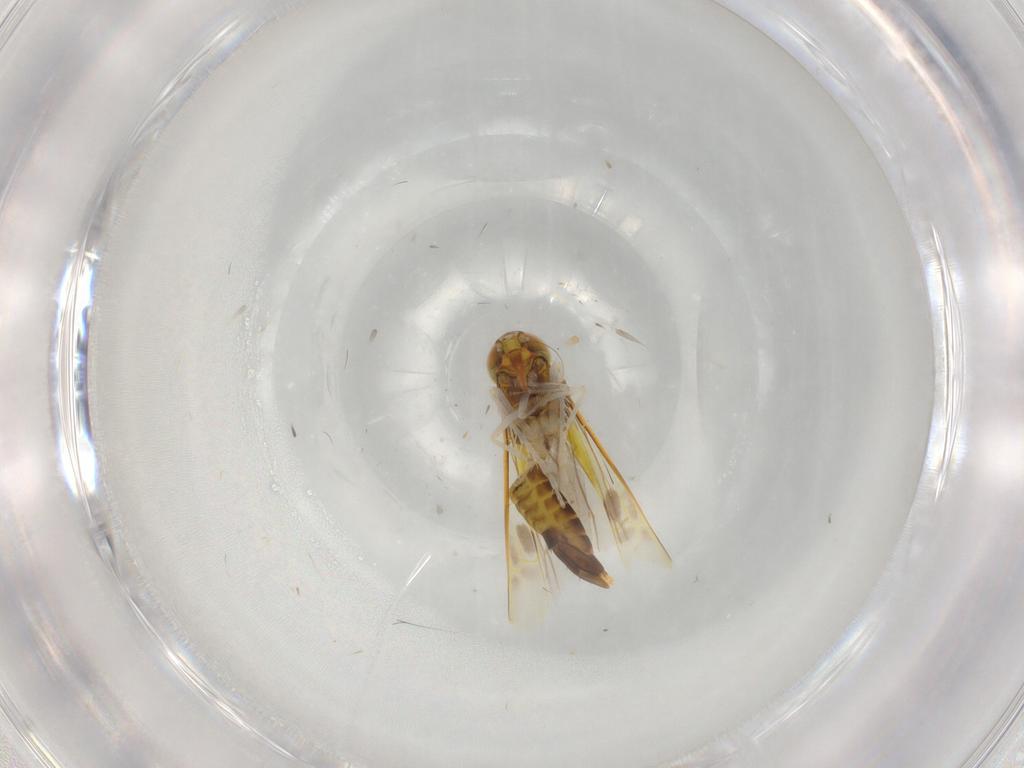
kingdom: Animalia
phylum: Arthropoda
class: Insecta
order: Hemiptera
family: Cicadellidae
